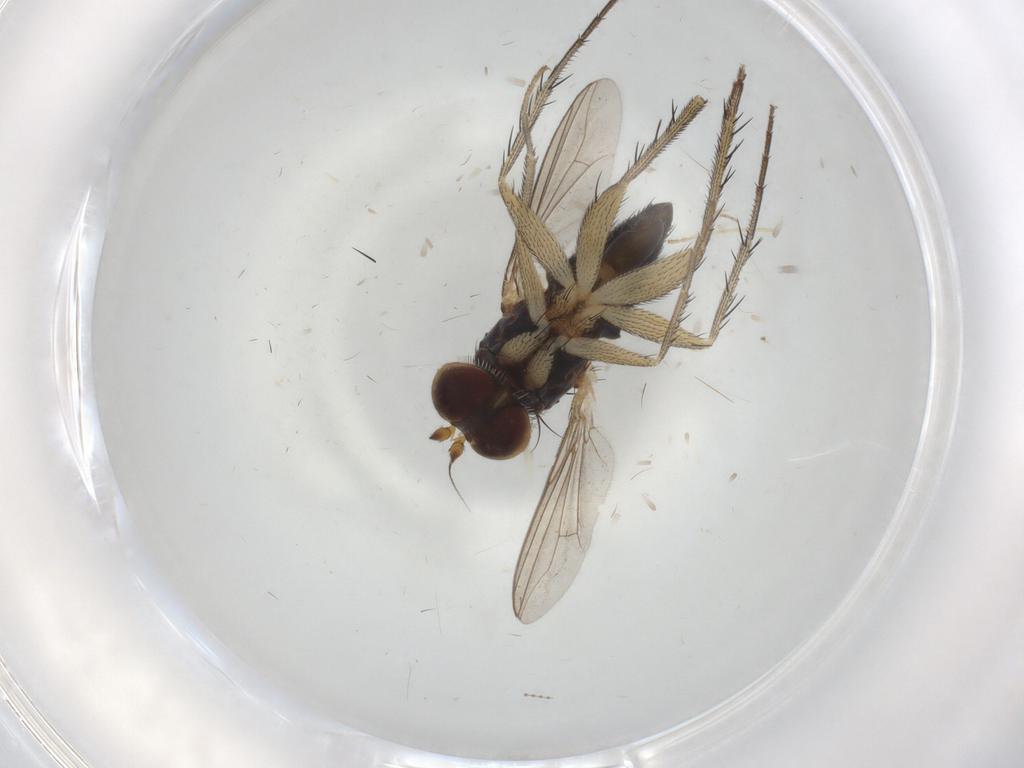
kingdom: Animalia
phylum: Arthropoda
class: Insecta
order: Diptera
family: Dolichopodidae
